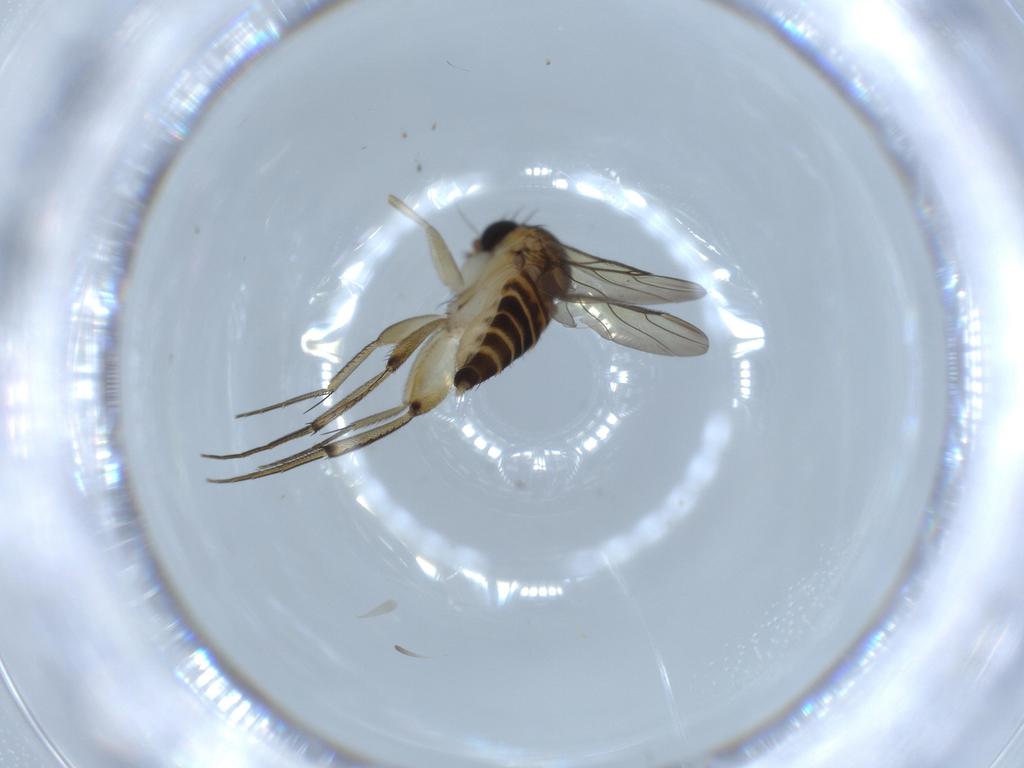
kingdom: Animalia
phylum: Arthropoda
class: Insecta
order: Diptera
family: Phoridae
